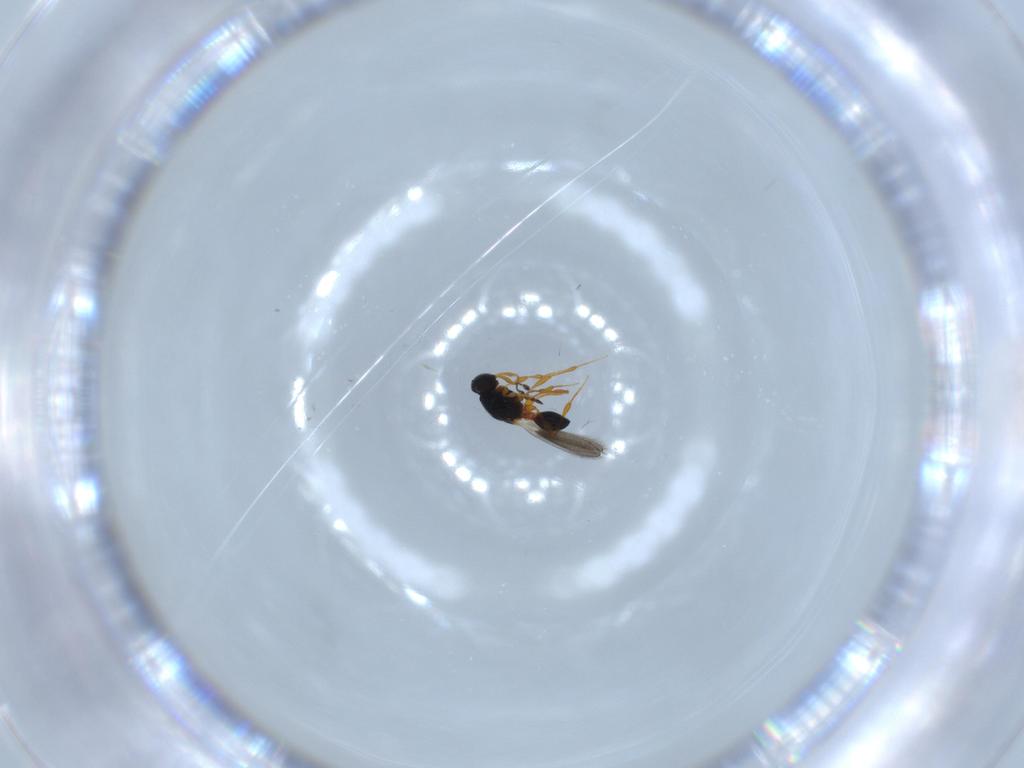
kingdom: Animalia
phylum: Arthropoda
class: Insecta
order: Hymenoptera
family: Platygastridae
